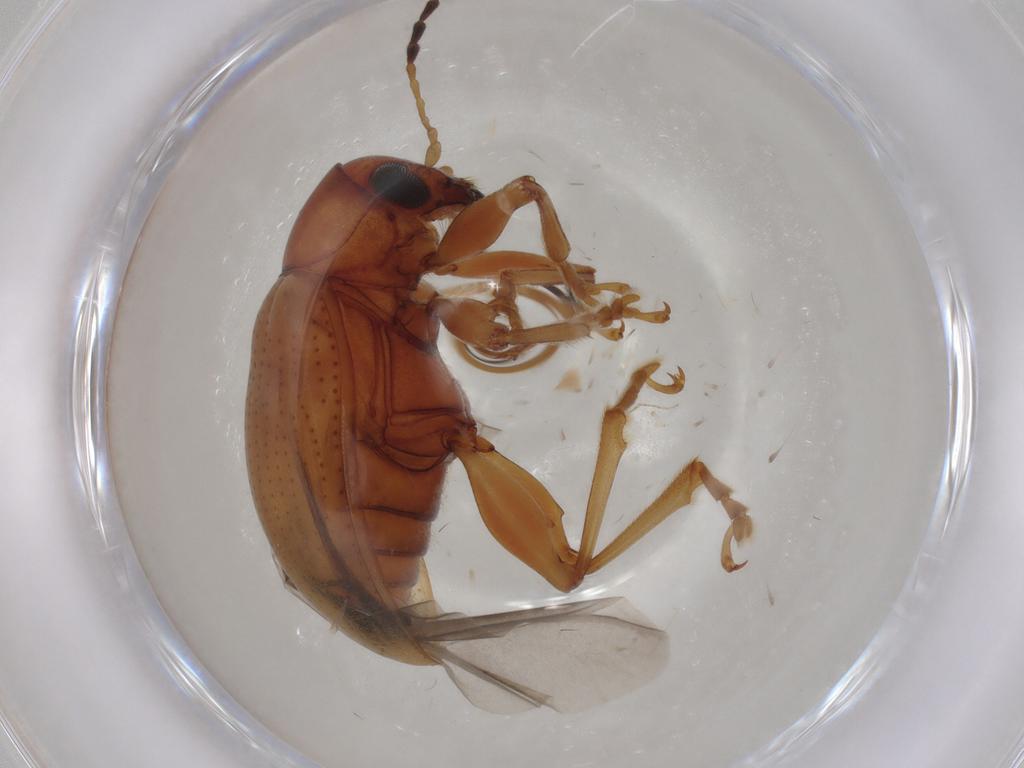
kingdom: Animalia
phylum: Arthropoda
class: Insecta
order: Coleoptera
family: Chrysomelidae
